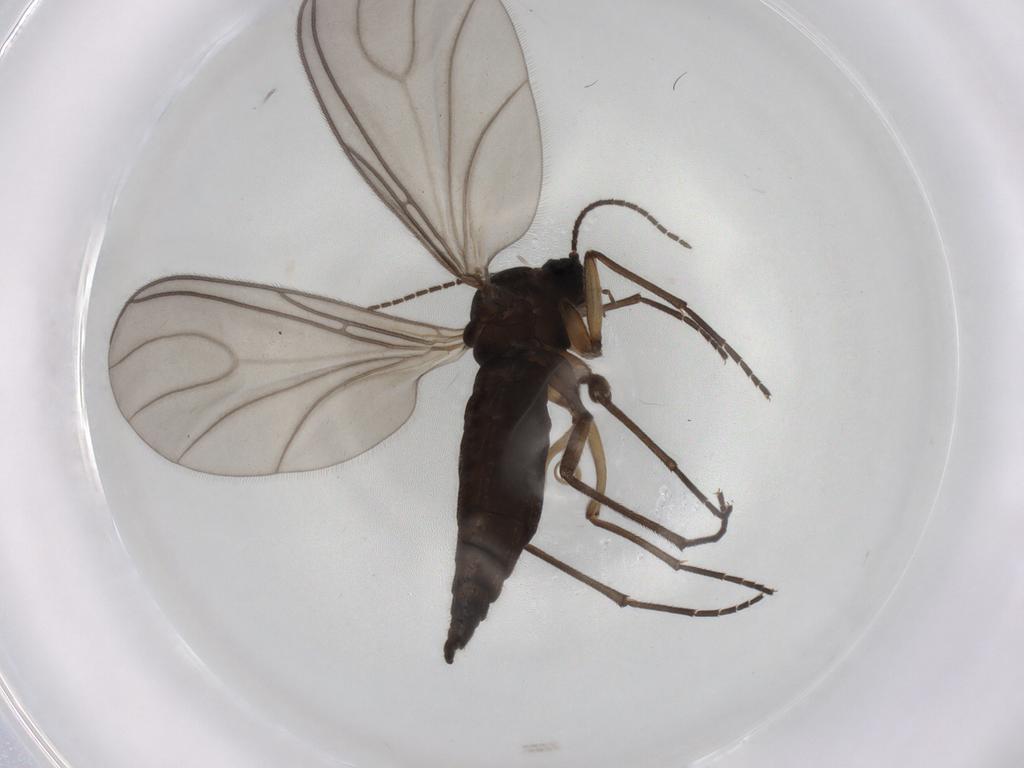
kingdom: Animalia
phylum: Arthropoda
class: Insecta
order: Diptera
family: Sciaridae
